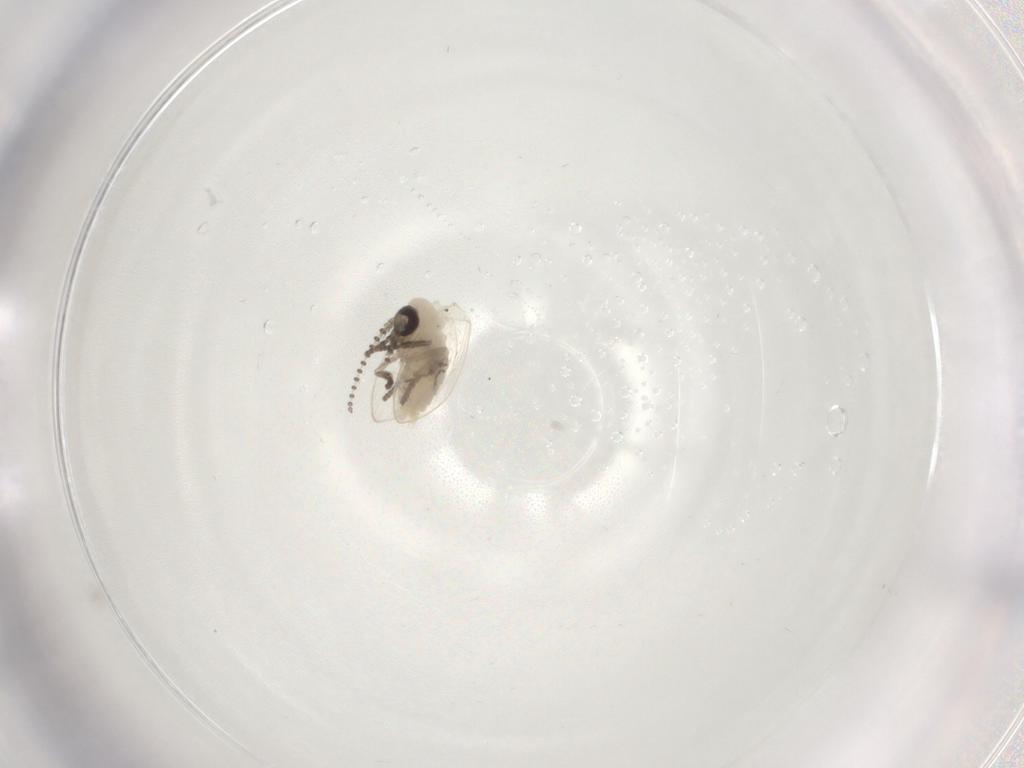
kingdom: Animalia
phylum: Arthropoda
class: Insecta
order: Diptera
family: Psychodidae
